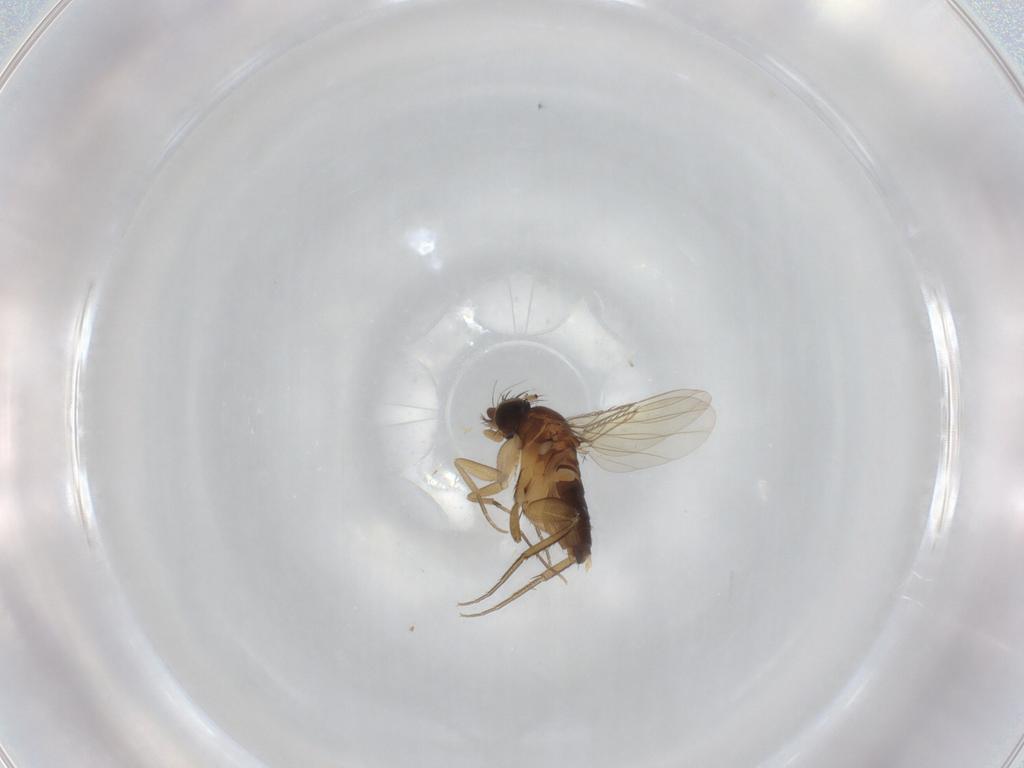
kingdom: Animalia
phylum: Arthropoda
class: Insecta
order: Diptera
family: Phoridae
